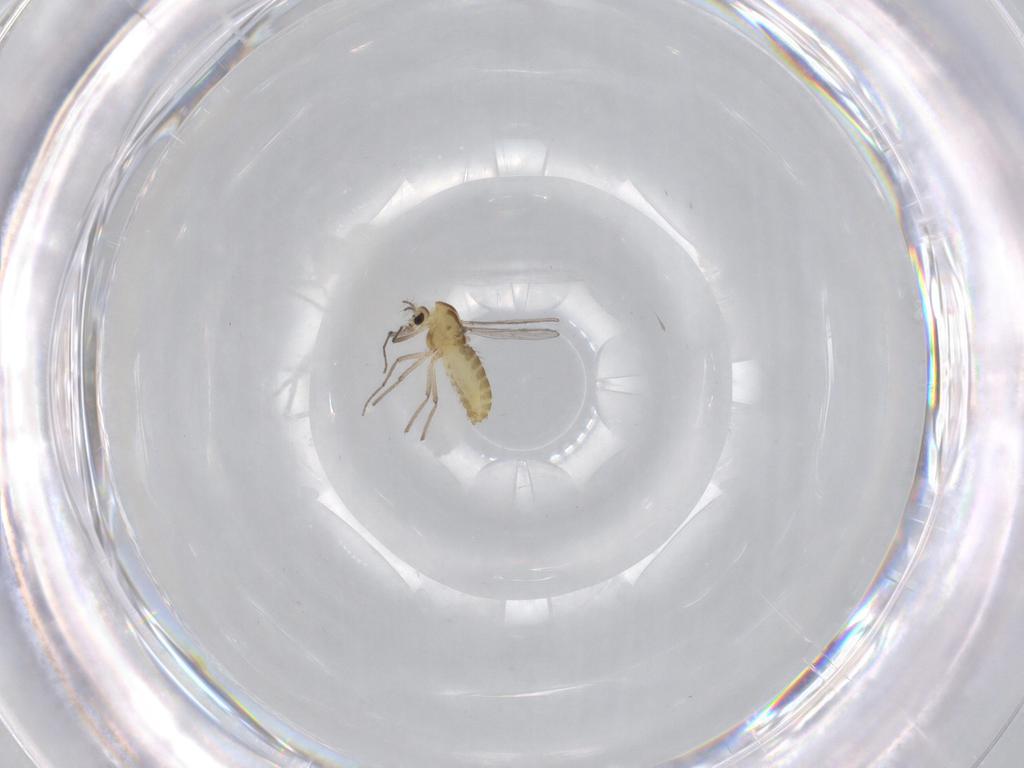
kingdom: Animalia
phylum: Arthropoda
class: Insecta
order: Diptera
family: Chironomidae
